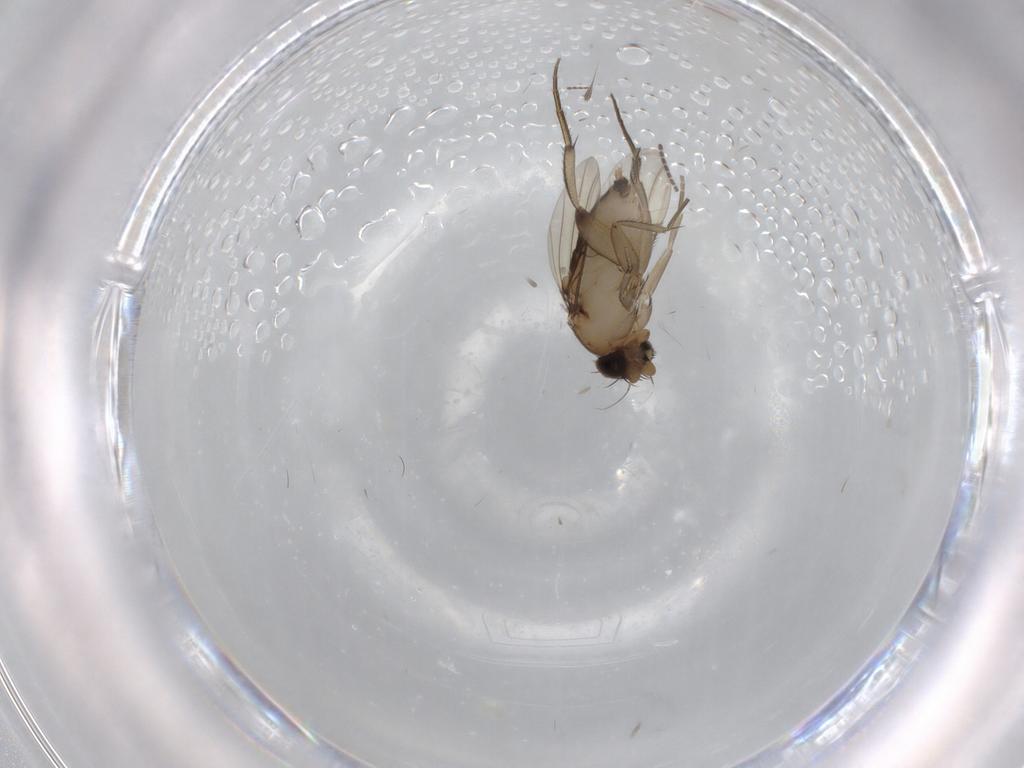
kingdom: Animalia
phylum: Arthropoda
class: Insecta
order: Diptera
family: Phoridae
